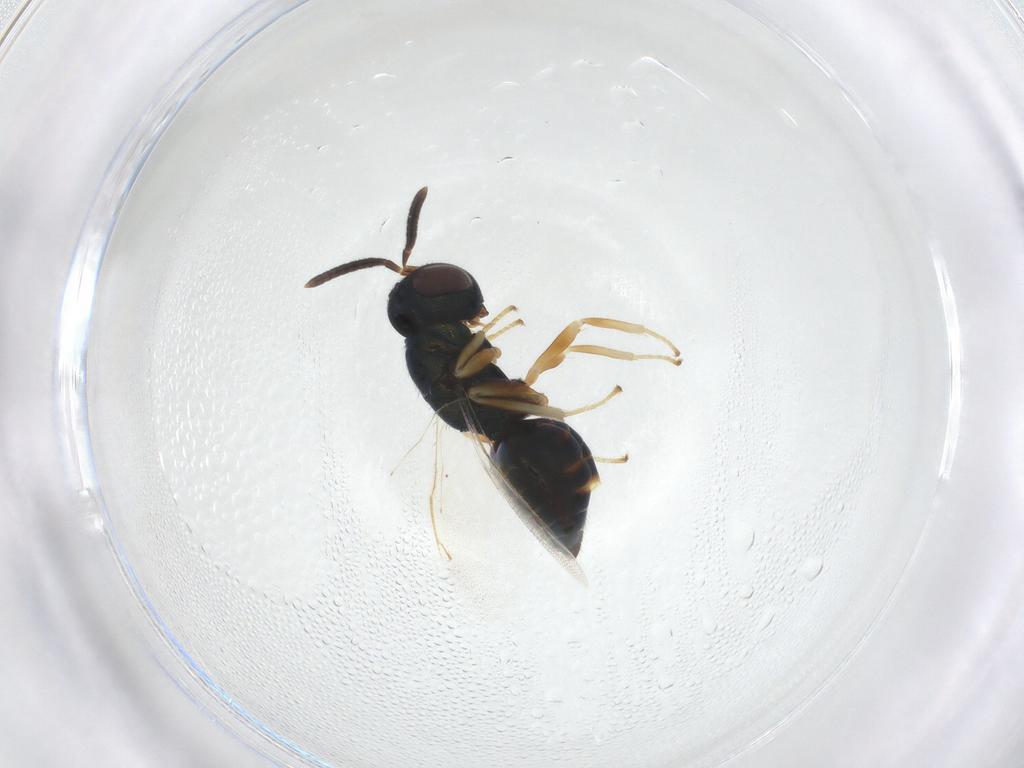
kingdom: Animalia
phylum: Arthropoda
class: Insecta
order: Hymenoptera
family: Pteromalidae
